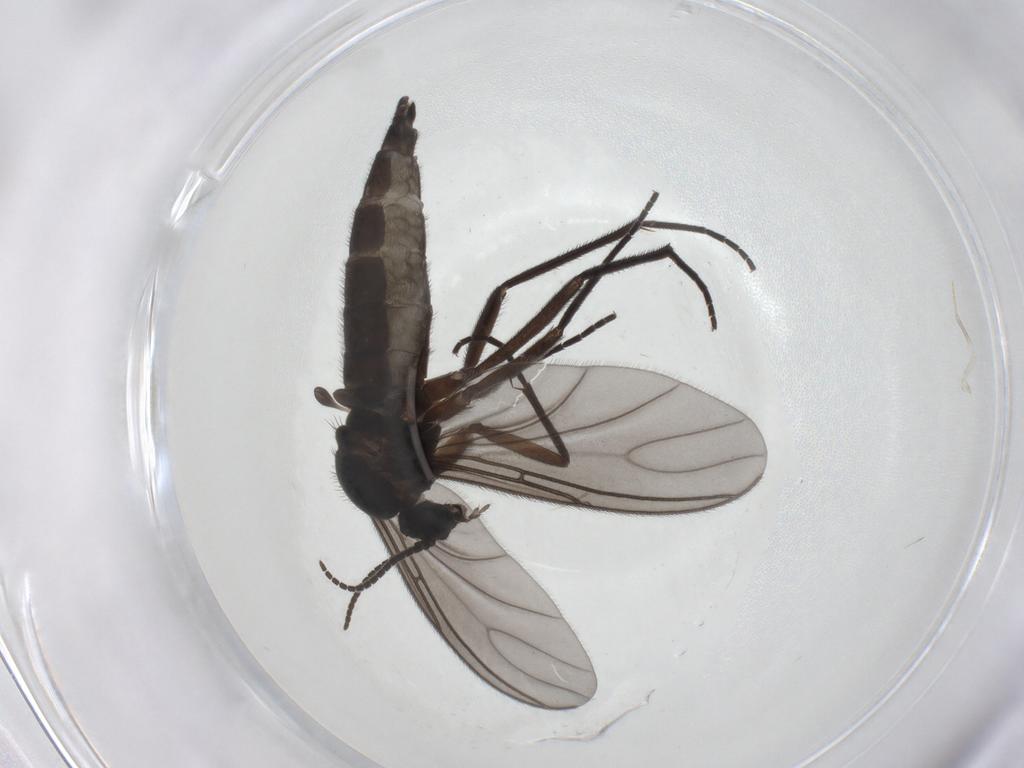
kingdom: Animalia
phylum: Arthropoda
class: Insecta
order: Diptera
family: Sciaridae
